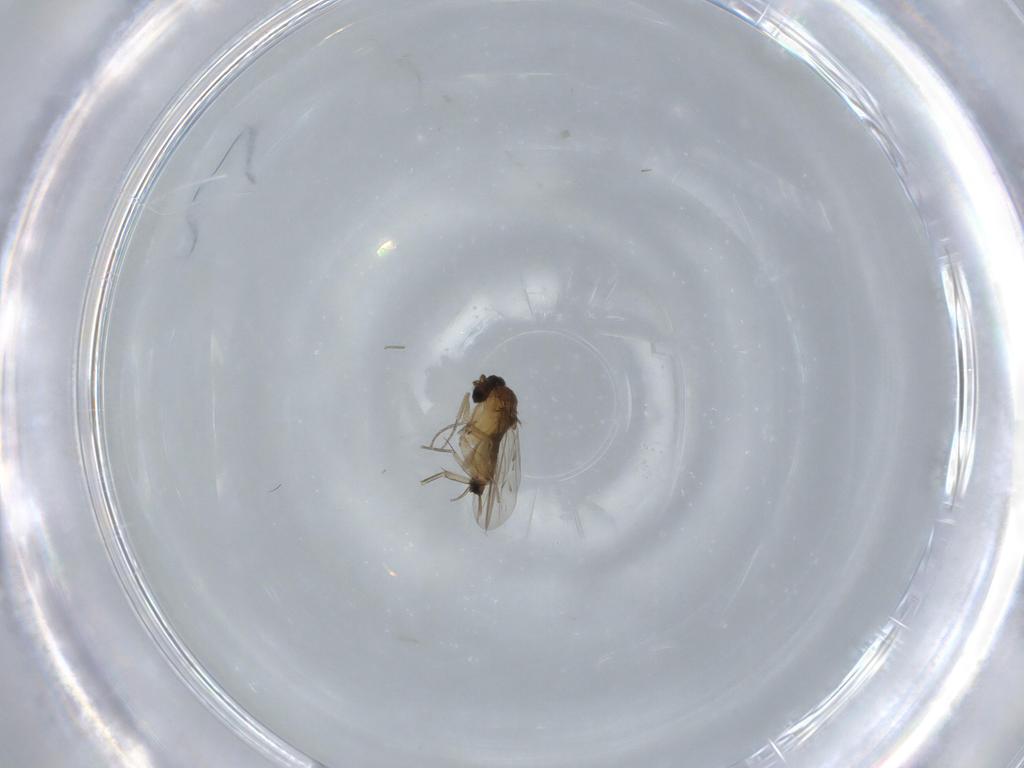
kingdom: Animalia
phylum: Arthropoda
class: Insecta
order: Diptera
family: Phoridae
